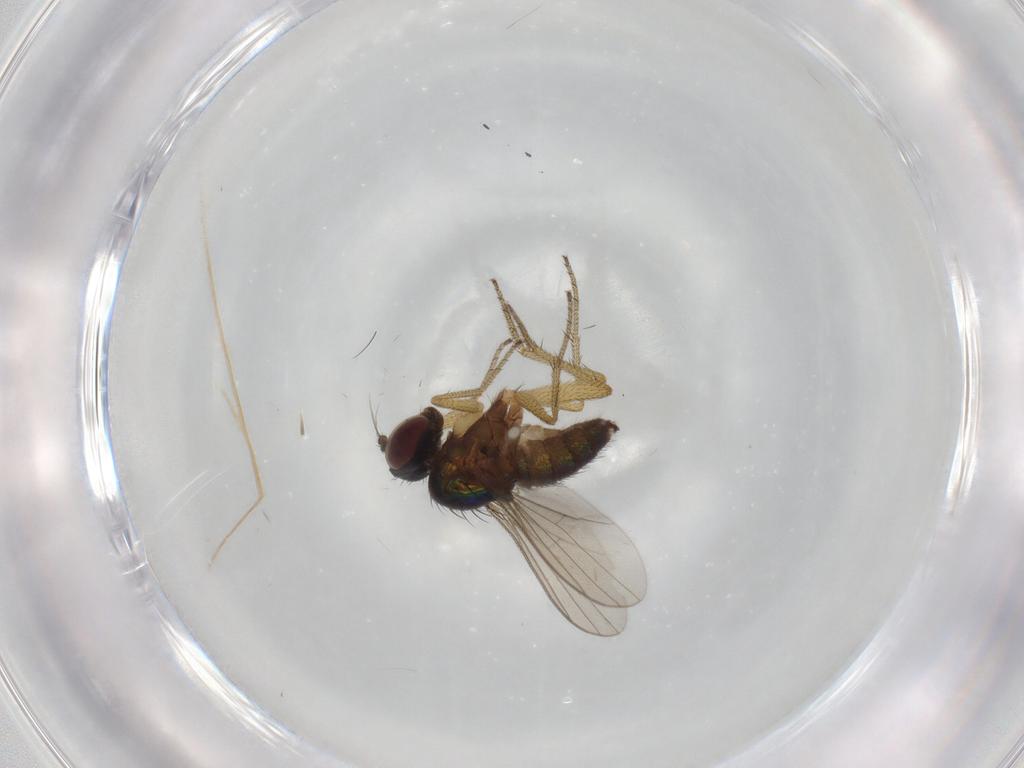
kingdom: Animalia
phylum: Arthropoda
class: Insecta
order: Diptera
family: Dolichopodidae
